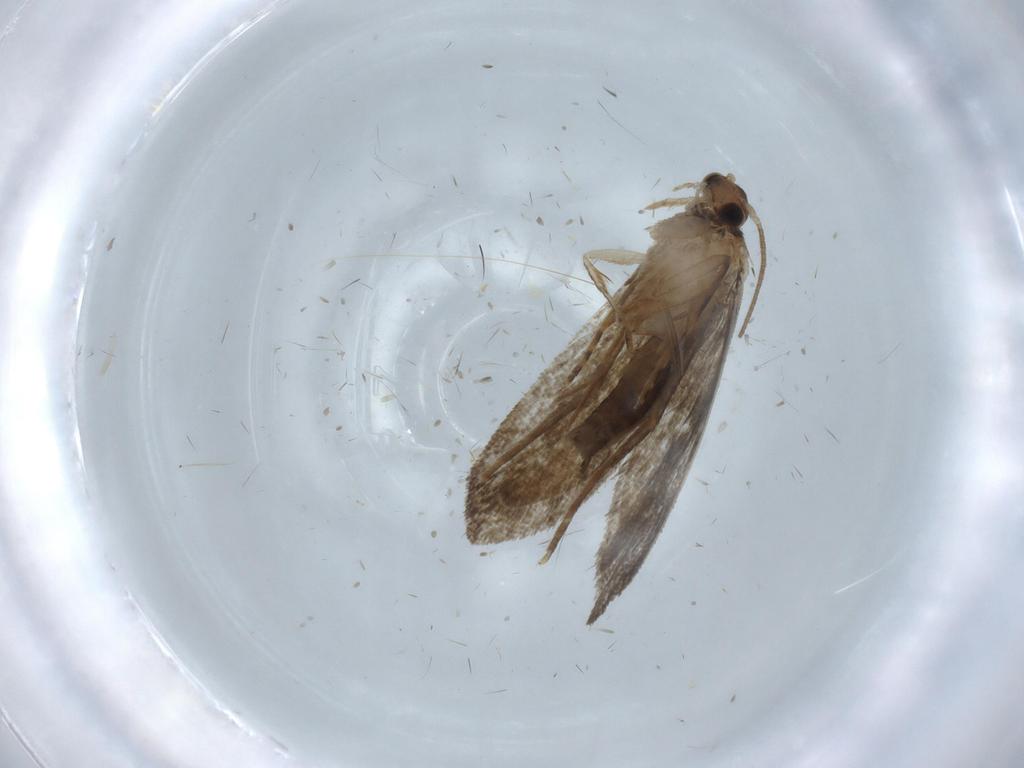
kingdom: Animalia
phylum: Arthropoda
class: Insecta
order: Lepidoptera
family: Tineidae
